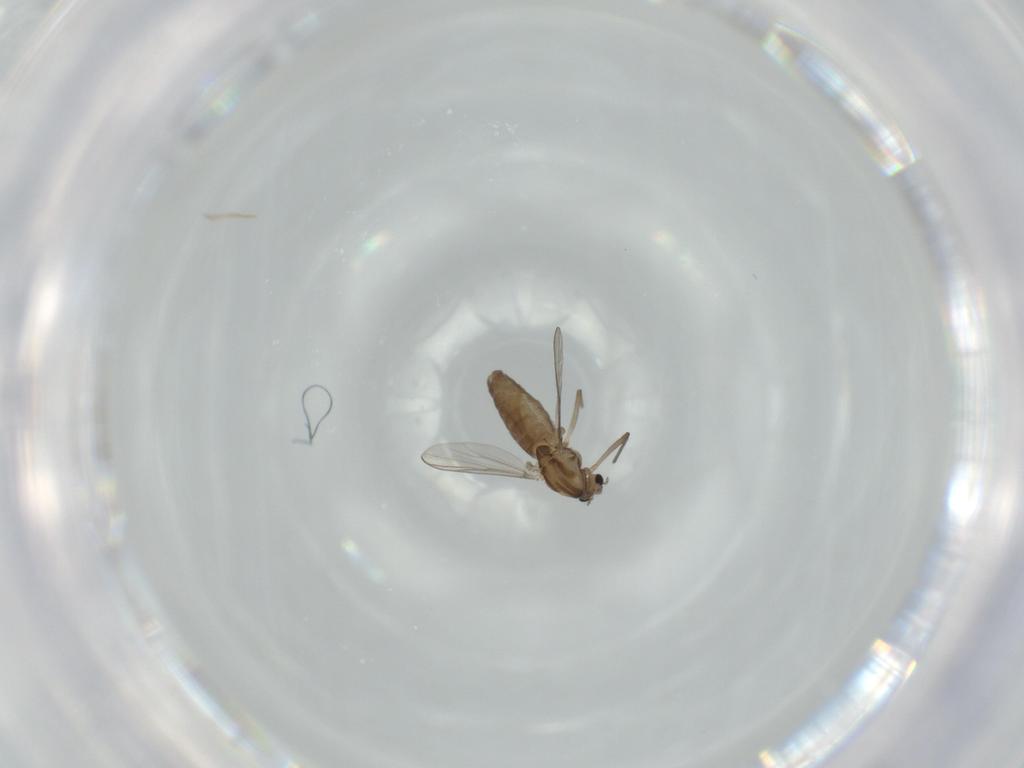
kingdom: Animalia
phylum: Arthropoda
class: Insecta
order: Diptera
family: Chironomidae
